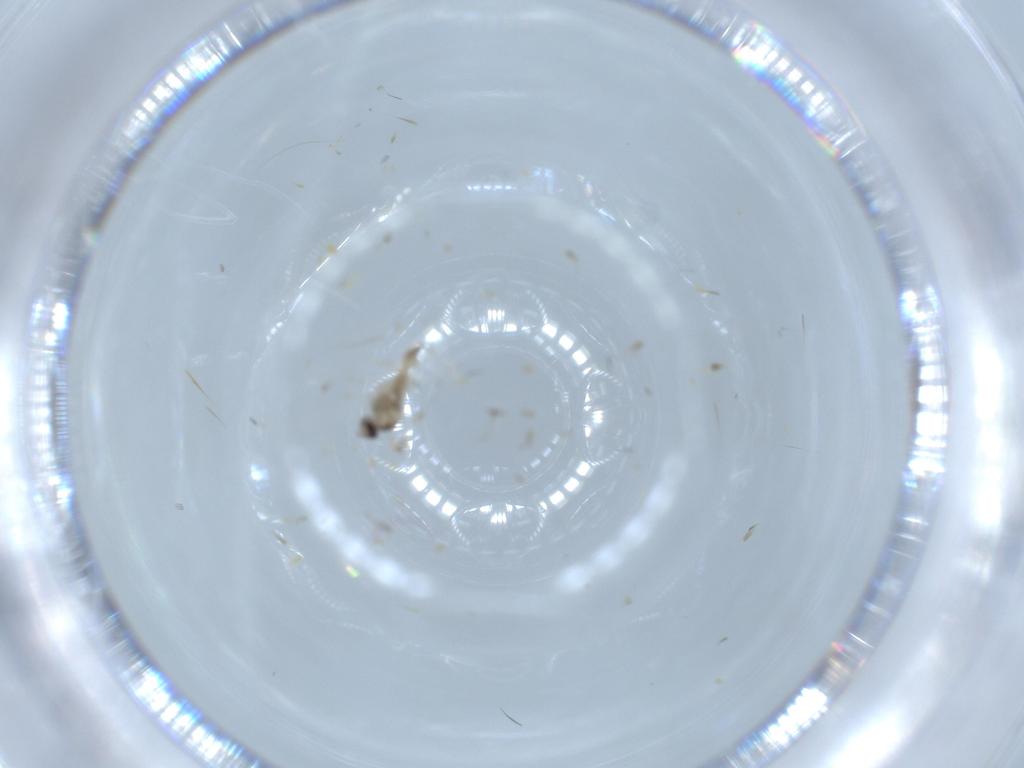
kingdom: Animalia
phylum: Arthropoda
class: Insecta
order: Diptera
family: Cecidomyiidae
